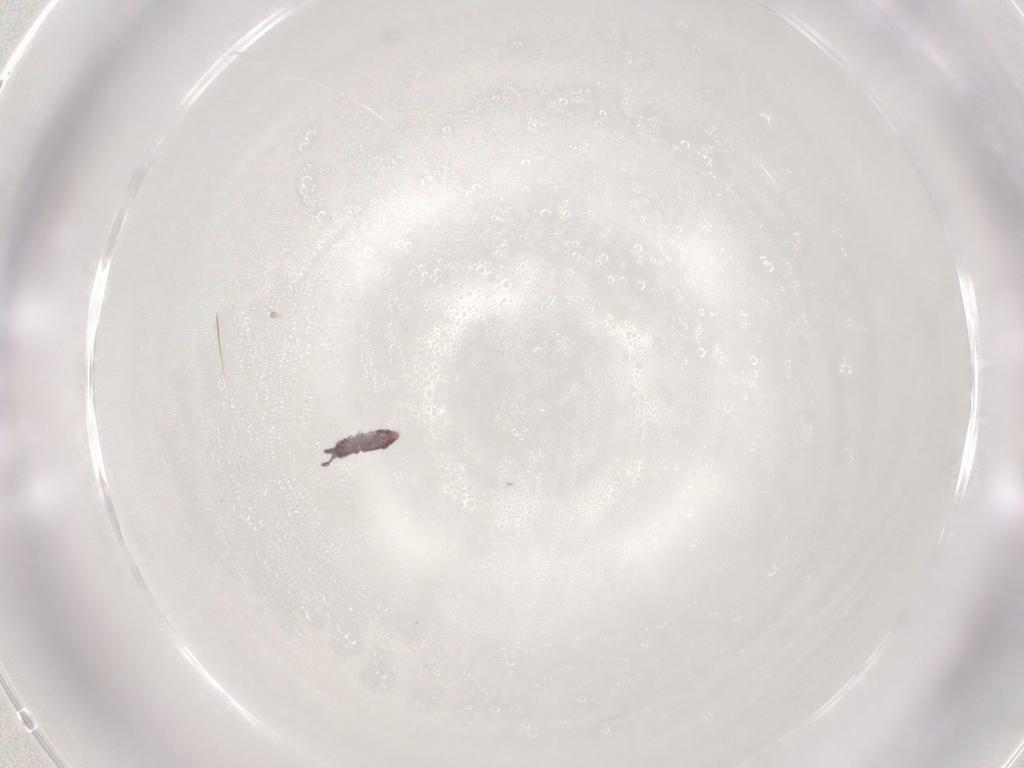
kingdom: Animalia
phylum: Arthropoda
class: Collembola
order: Poduromorpha
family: Hypogastruridae
